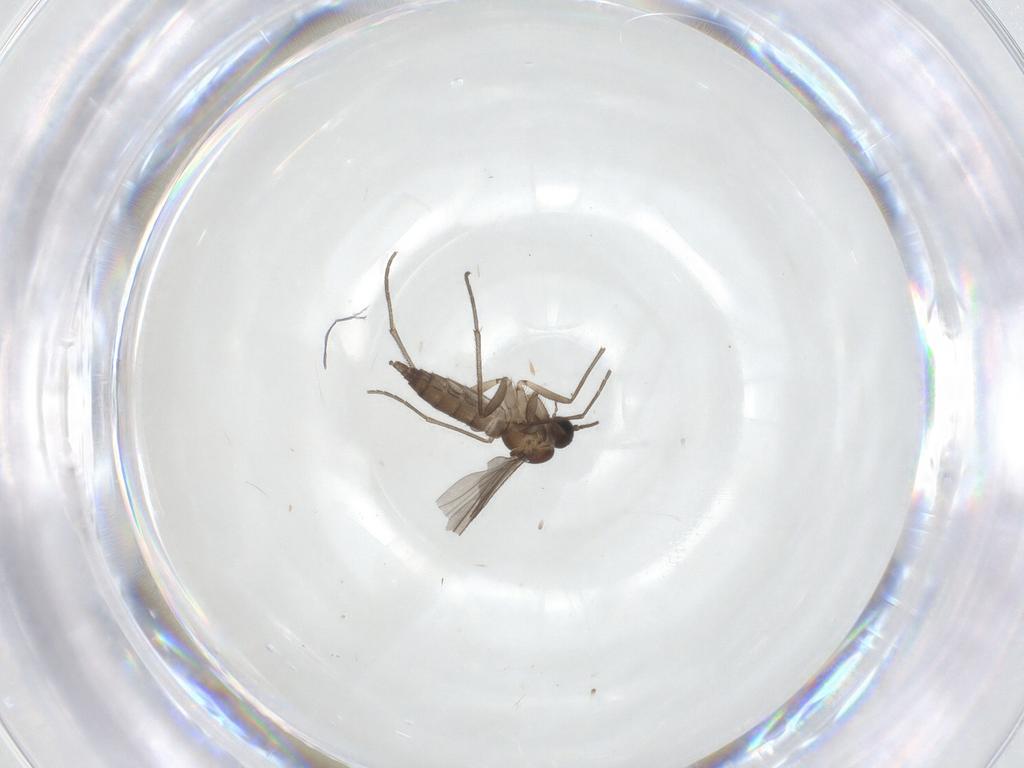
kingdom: Animalia
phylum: Arthropoda
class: Insecta
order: Diptera
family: Sciaridae
